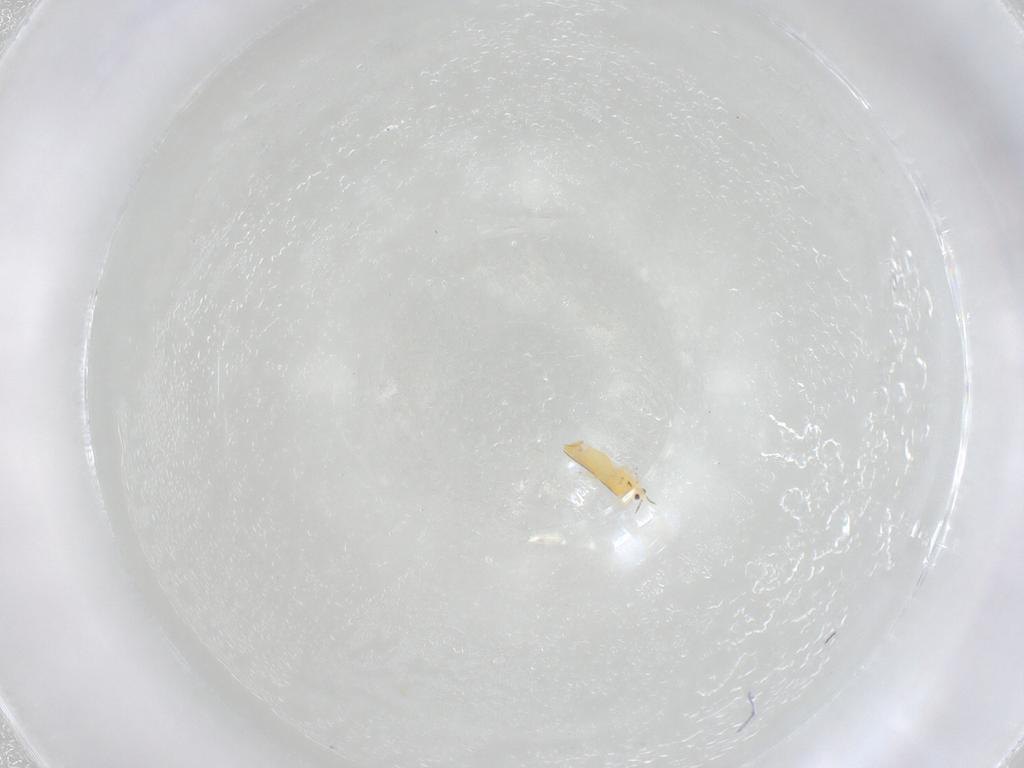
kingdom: Animalia
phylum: Arthropoda
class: Insecta
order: Thysanoptera
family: Thripidae
